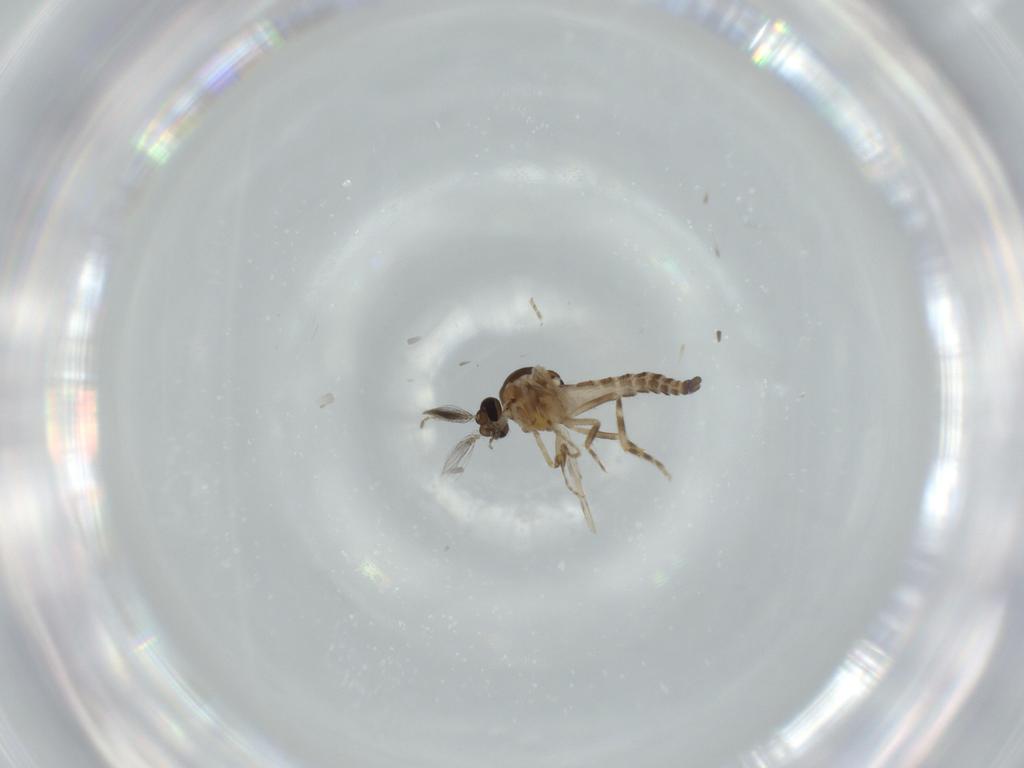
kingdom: Animalia
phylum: Arthropoda
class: Insecta
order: Diptera
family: Ceratopogonidae
